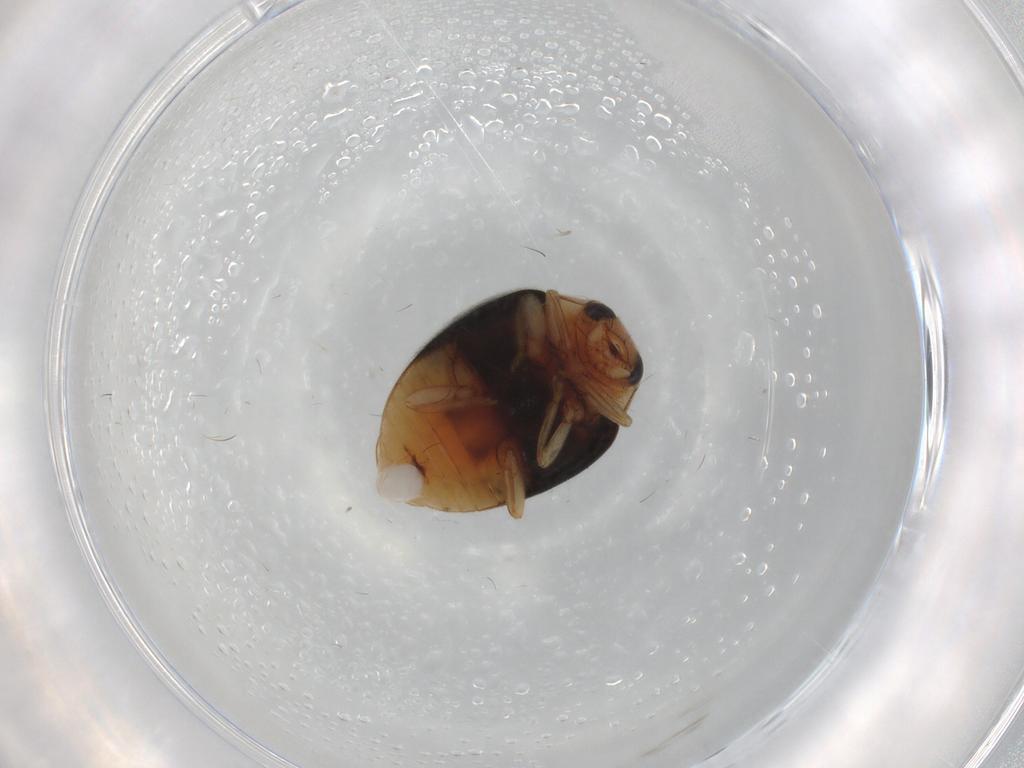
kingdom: Animalia
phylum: Arthropoda
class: Insecta
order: Coleoptera
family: Coccinellidae
